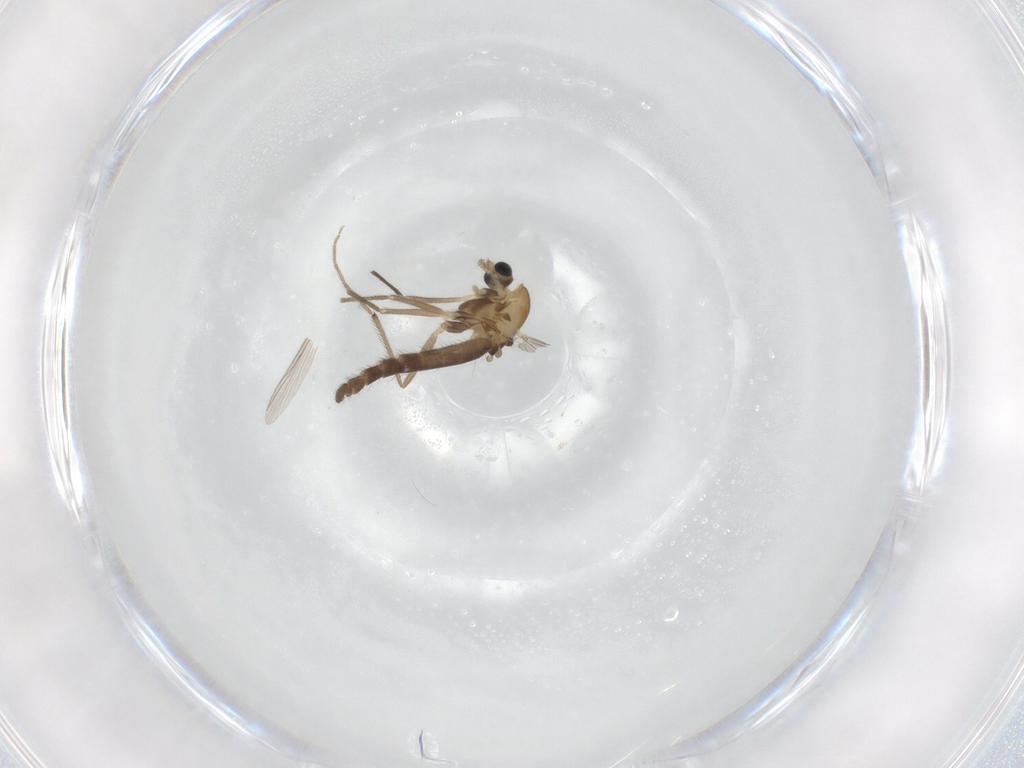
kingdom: Animalia
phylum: Arthropoda
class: Insecta
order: Diptera
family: Chironomidae
